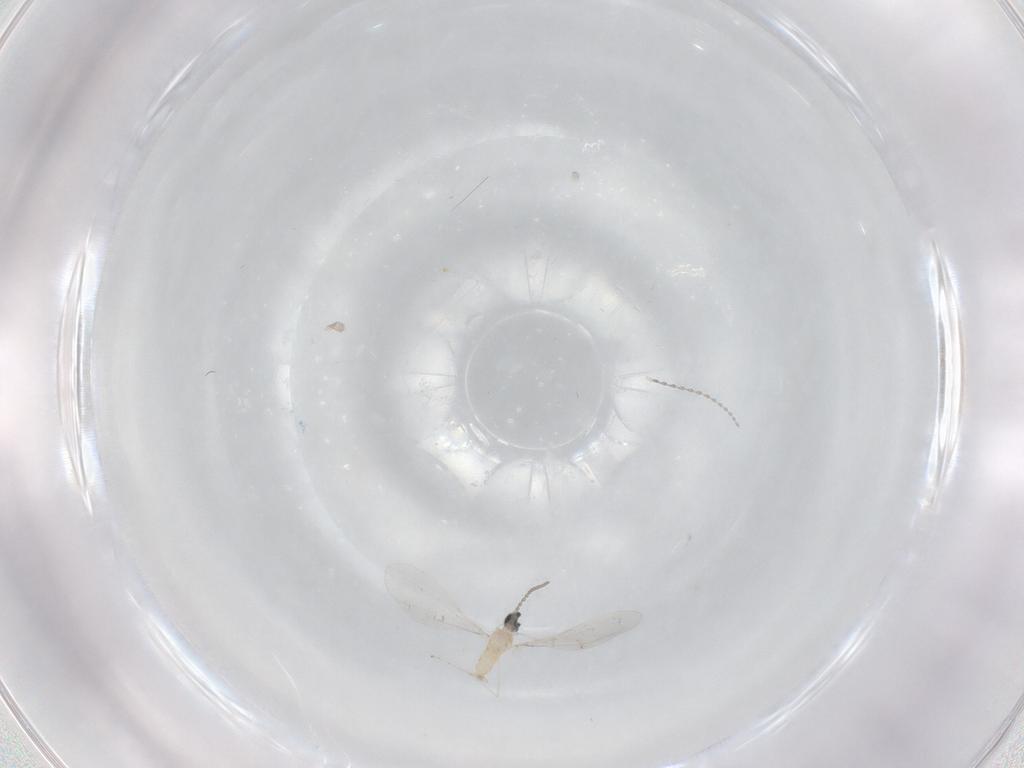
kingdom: Animalia
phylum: Arthropoda
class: Insecta
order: Diptera
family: Cecidomyiidae
